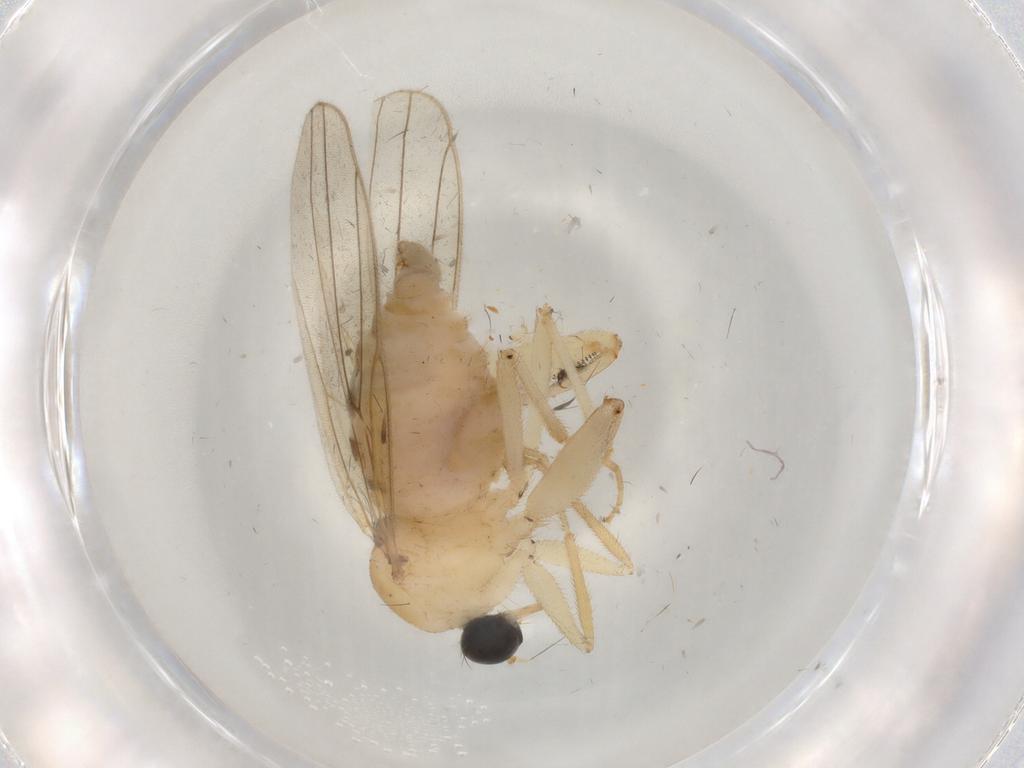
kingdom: Animalia
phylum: Arthropoda
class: Insecta
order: Diptera
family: Hybotidae
